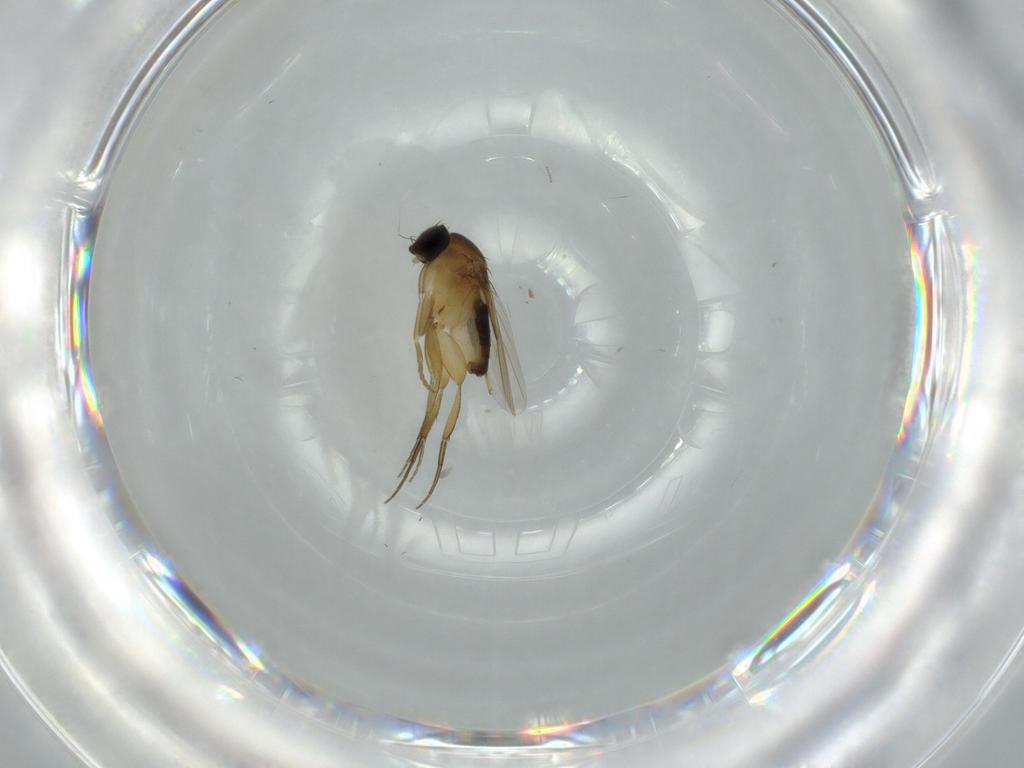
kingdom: Animalia
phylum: Arthropoda
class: Insecta
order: Diptera
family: Phoridae
